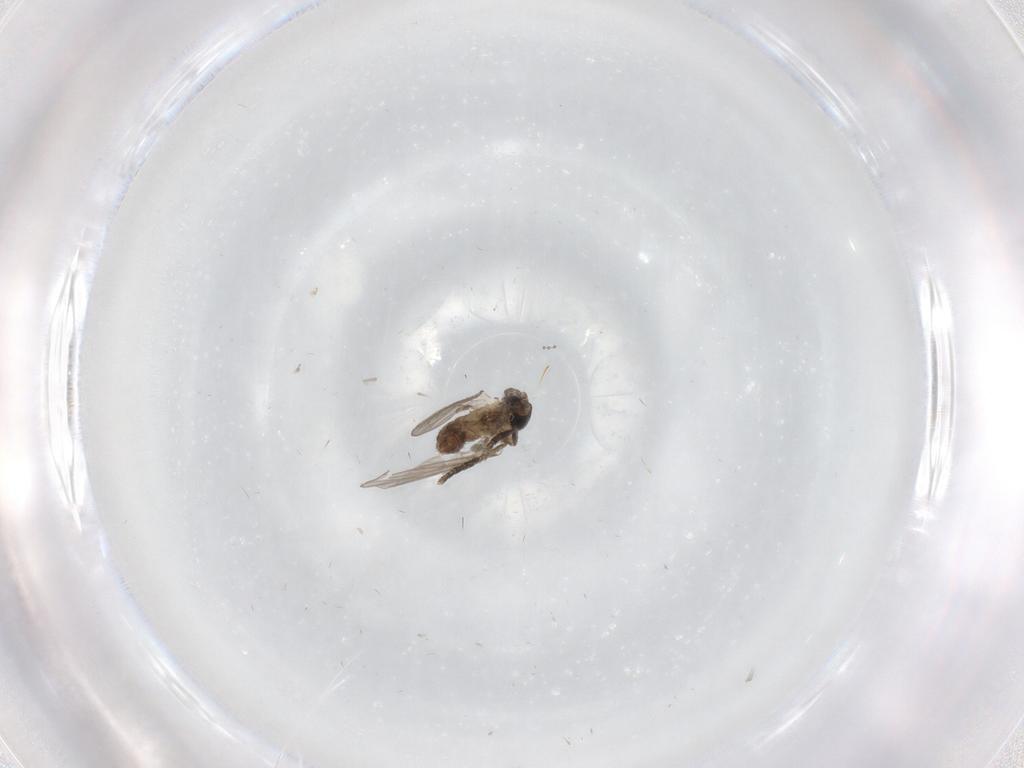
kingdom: Animalia
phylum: Arthropoda
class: Insecta
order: Diptera
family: Cecidomyiidae
